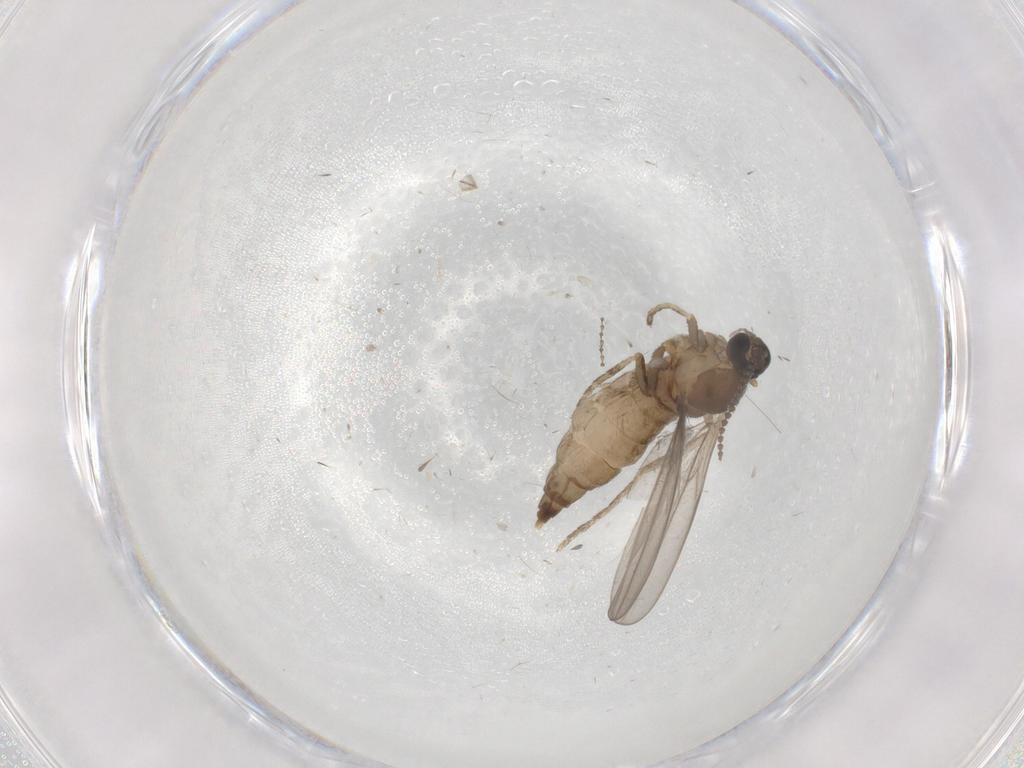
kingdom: Animalia
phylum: Arthropoda
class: Insecta
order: Diptera
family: Cecidomyiidae
